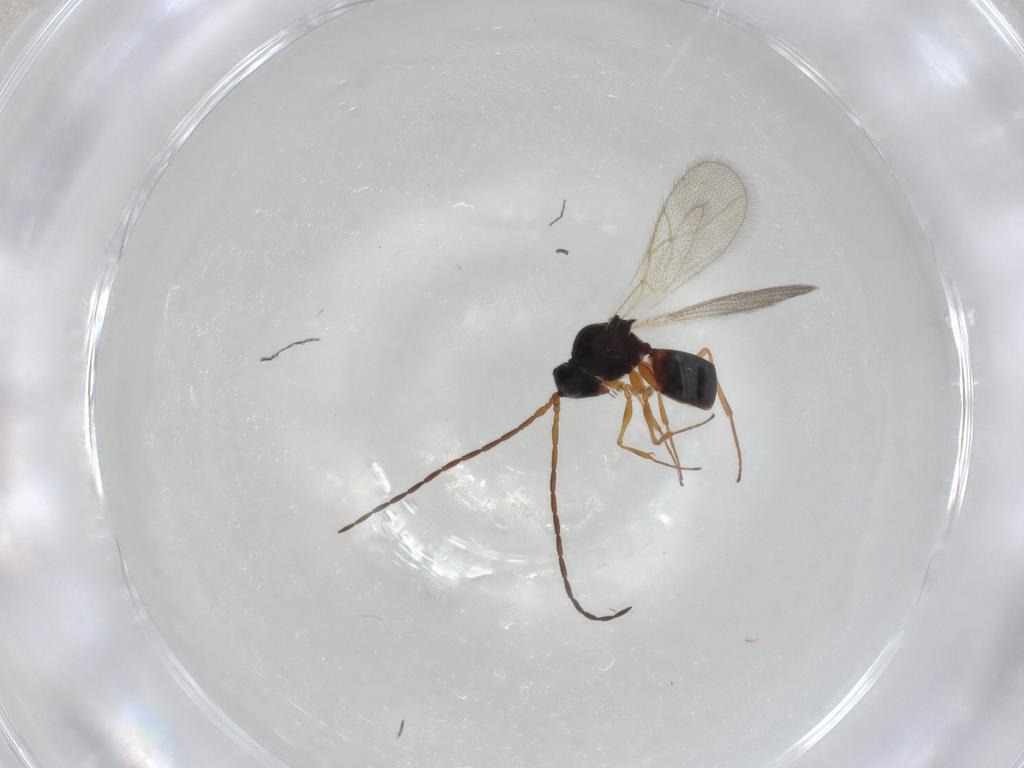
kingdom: Animalia
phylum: Arthropoda
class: Insecta
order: Hymenoptera
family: Figitidae
